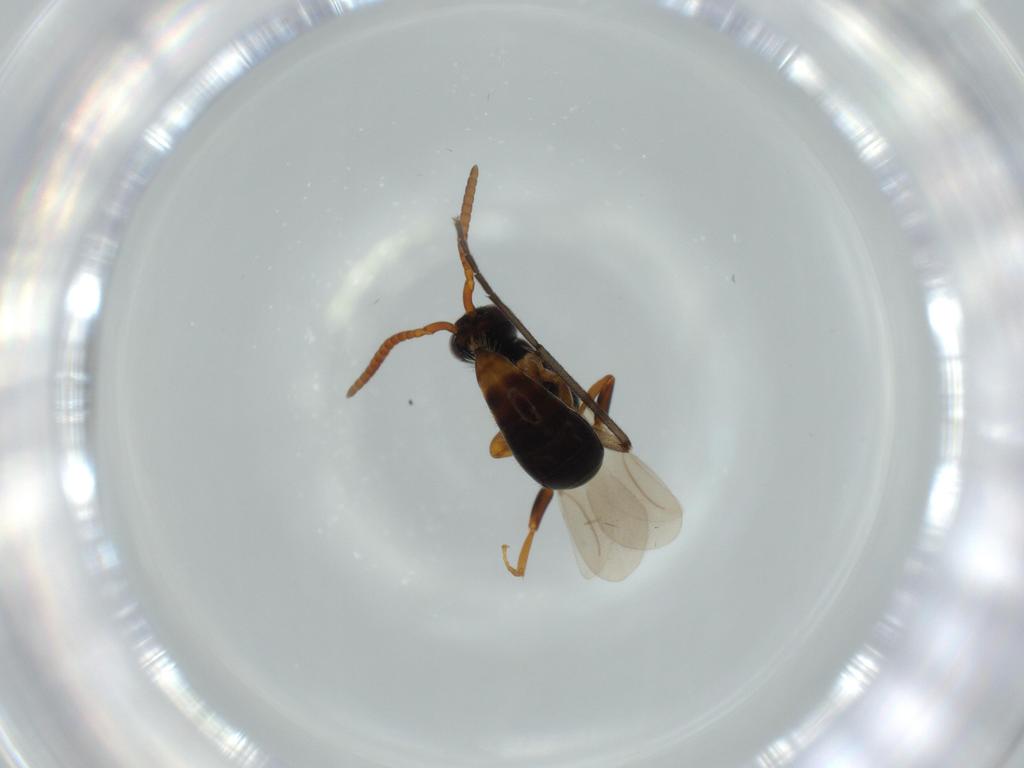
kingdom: Animalia
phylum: Arthropoda
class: Insecta
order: Hymenoptera
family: Bethylidae
